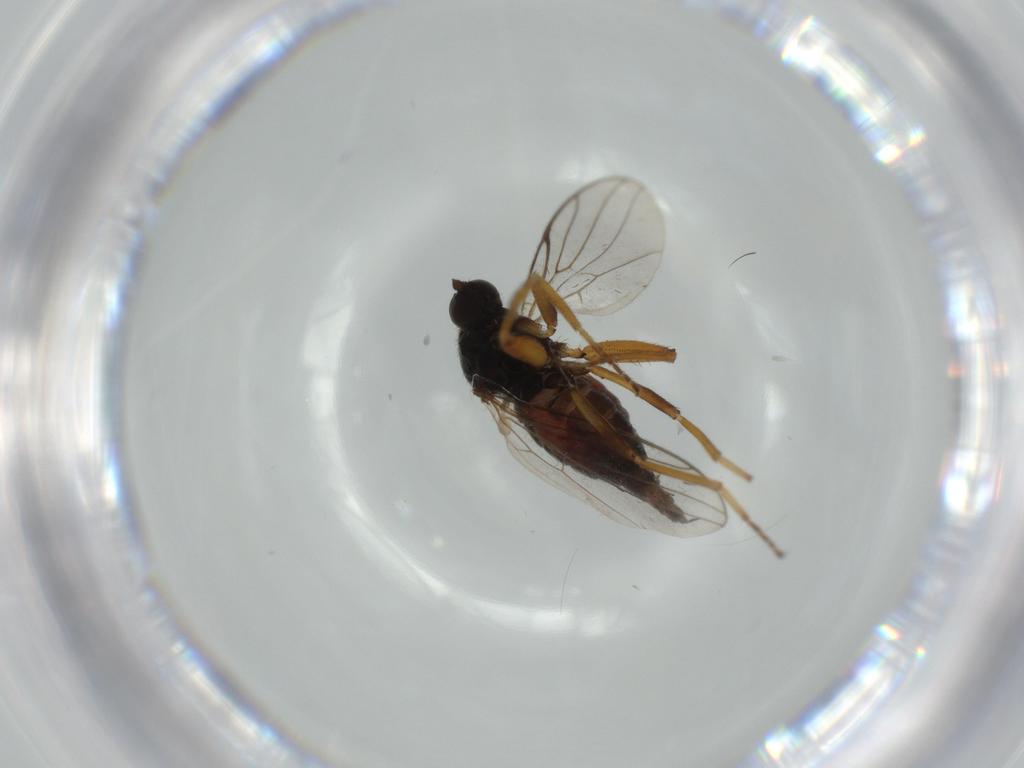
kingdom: Animalia
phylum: Arthropoda
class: Insecta
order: Diptera
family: Hybotidae
